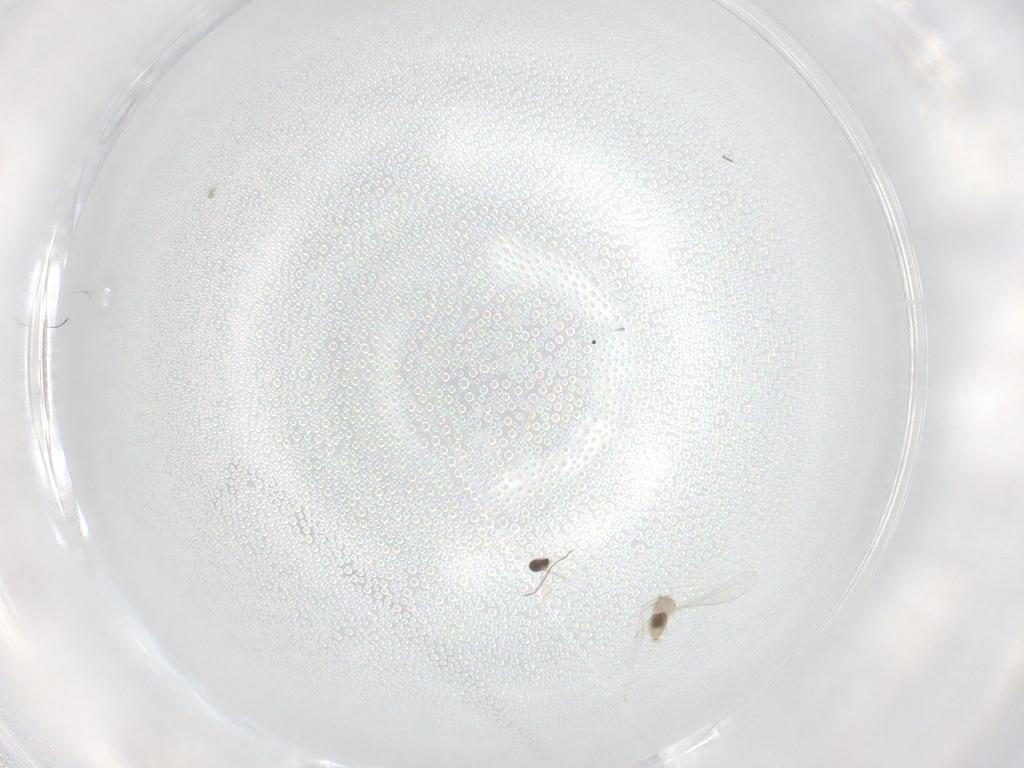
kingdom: Animalia
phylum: Arthropoda
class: Insecta
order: Diptera
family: Cecidomyiidae
